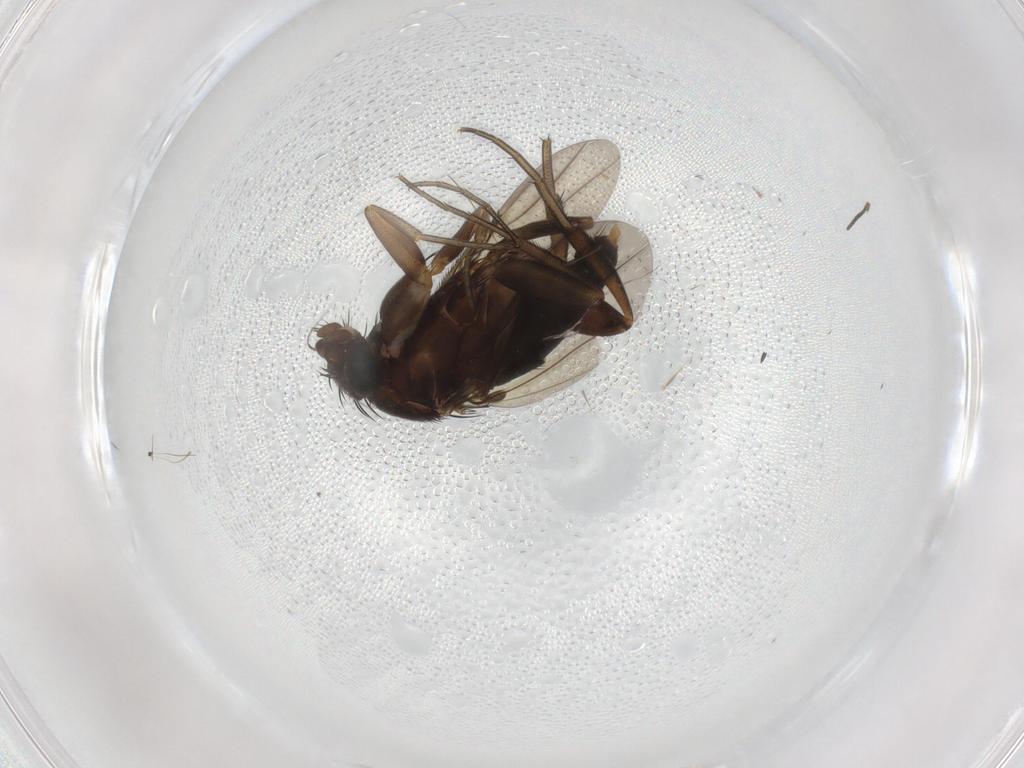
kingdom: Animalia
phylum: Arthropoda
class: Insecta
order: Diptera
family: Phoridae
